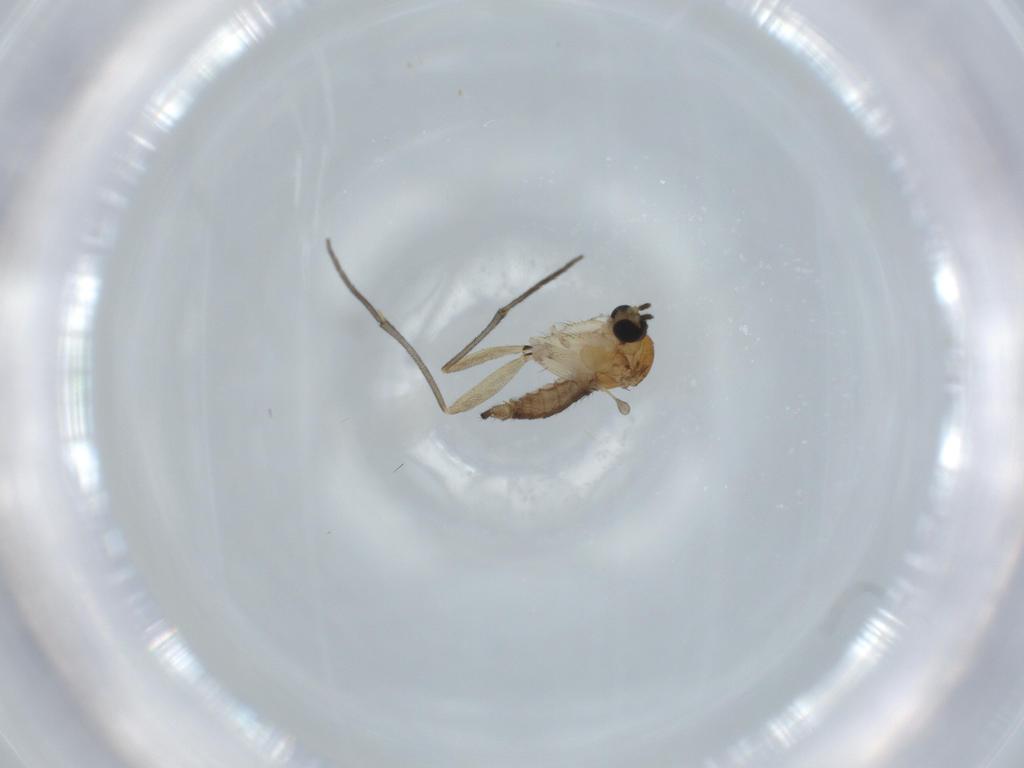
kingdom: Animalia
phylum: Arthropoda
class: Insecta
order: Diptera
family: Sciaridae
